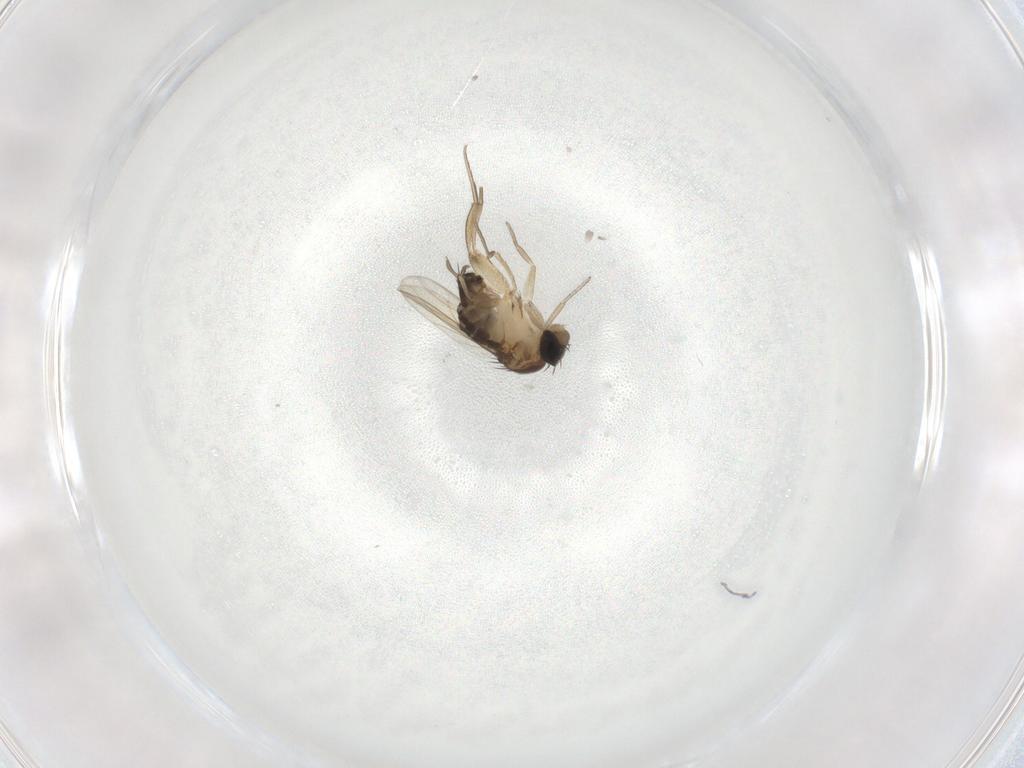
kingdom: Animalia
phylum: Arthropoda
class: Insecta
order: Diptera
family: Phoridae
